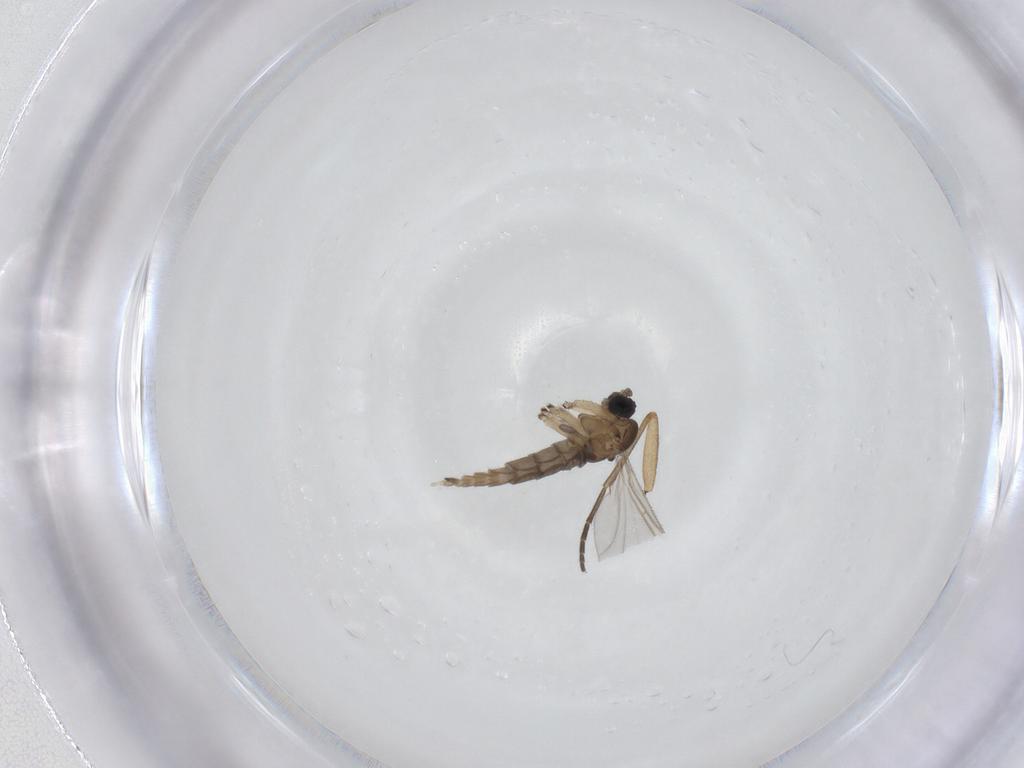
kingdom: Animalia
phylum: Arthropoda
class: Insecta
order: Diptera
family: Sciaridae
